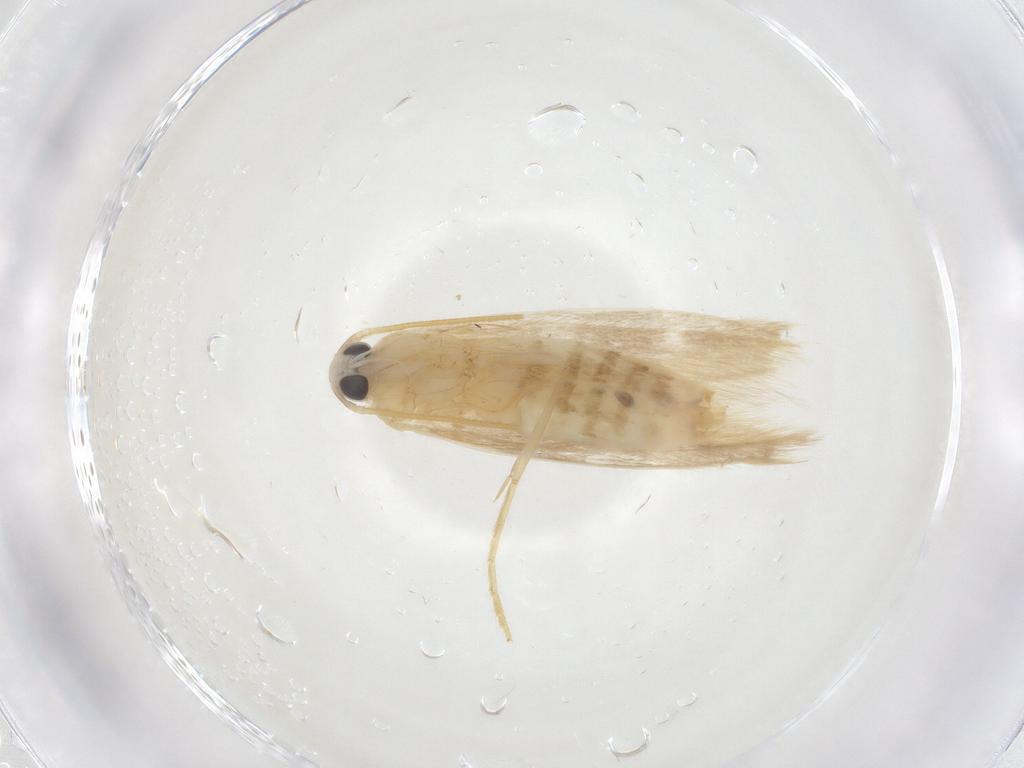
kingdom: Animalia
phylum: Arthropoda
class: Insecta
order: Lepidoptera
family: Coleophoridae
